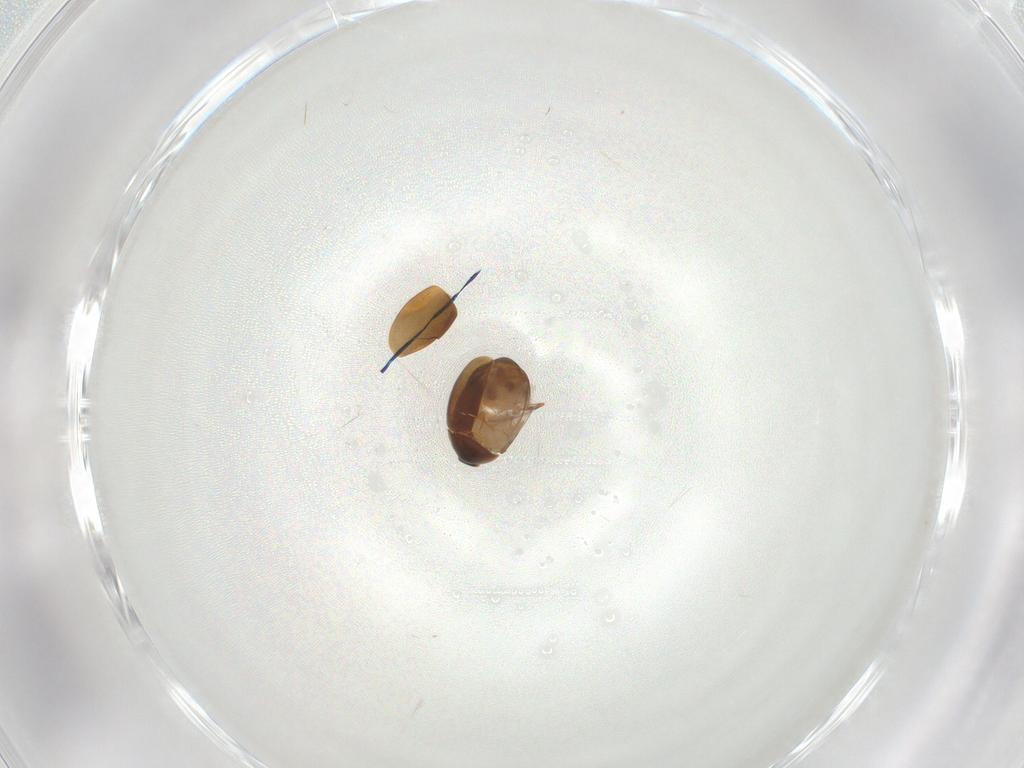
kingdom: Animalia
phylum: Arthropoda
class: Insecta
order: Coleoptera
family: Corylophidae
